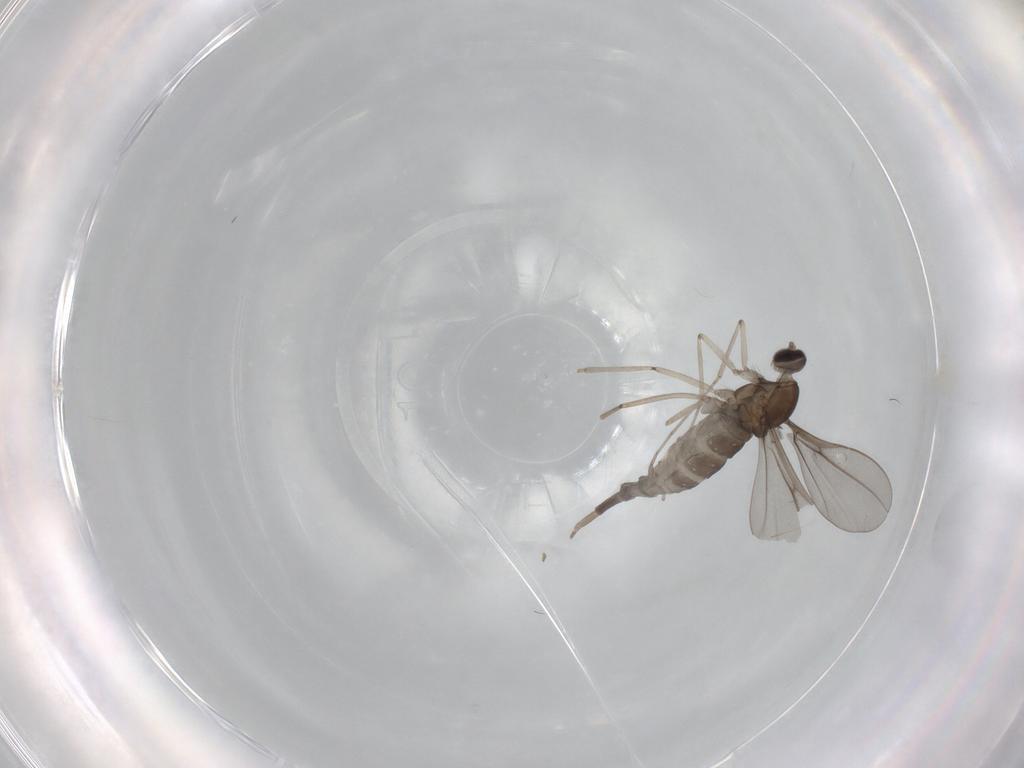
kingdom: Animalia
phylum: Arthropoda
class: Insecta
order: Diptera
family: Cecidomyiidae
